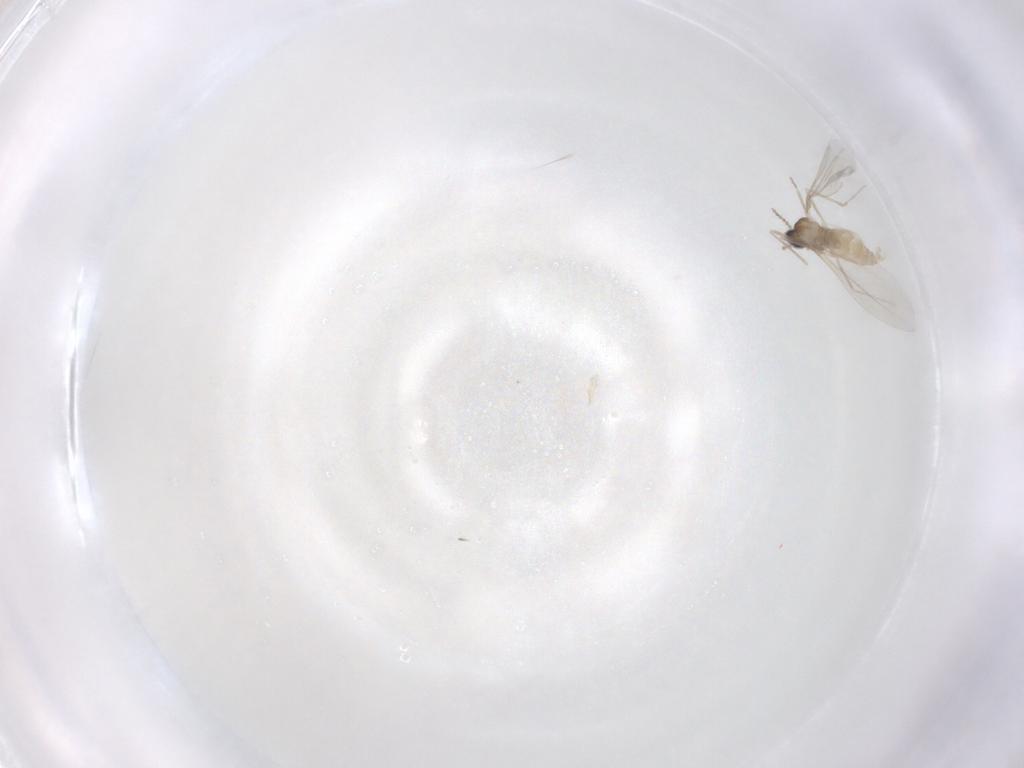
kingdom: Animalia
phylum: Arthropoda
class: Insecta
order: Diptera
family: Cecidomyiidae
